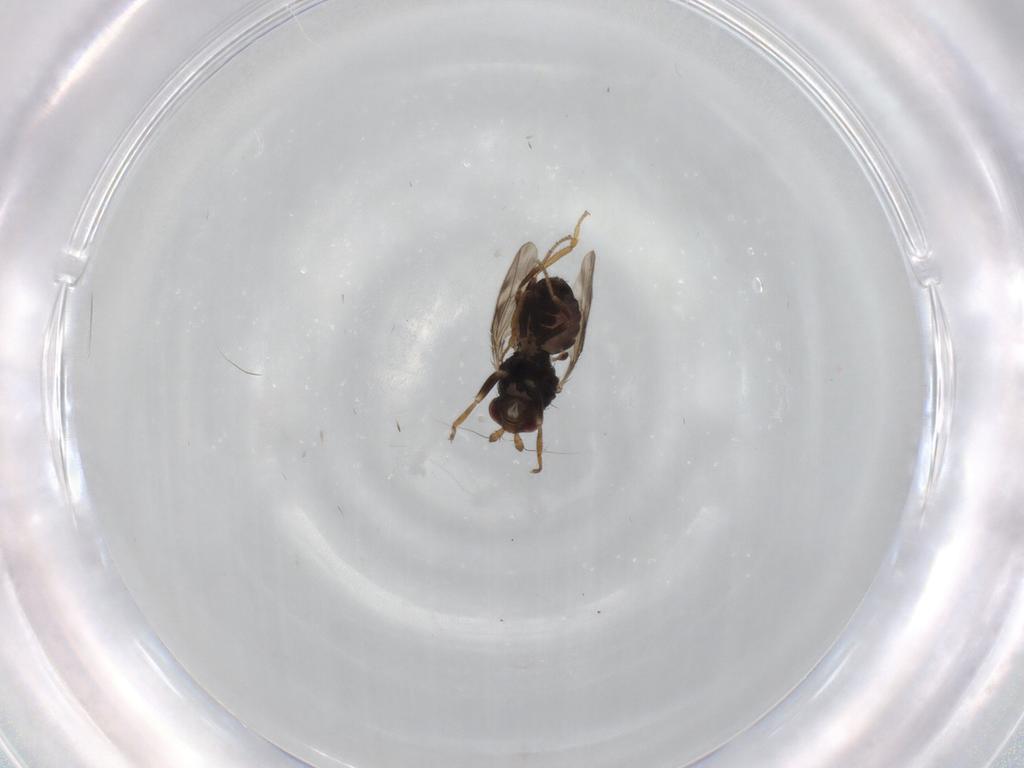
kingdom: Animalia
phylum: Arthropoda
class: Insecta
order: Diptera
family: Sphaeroceridae
